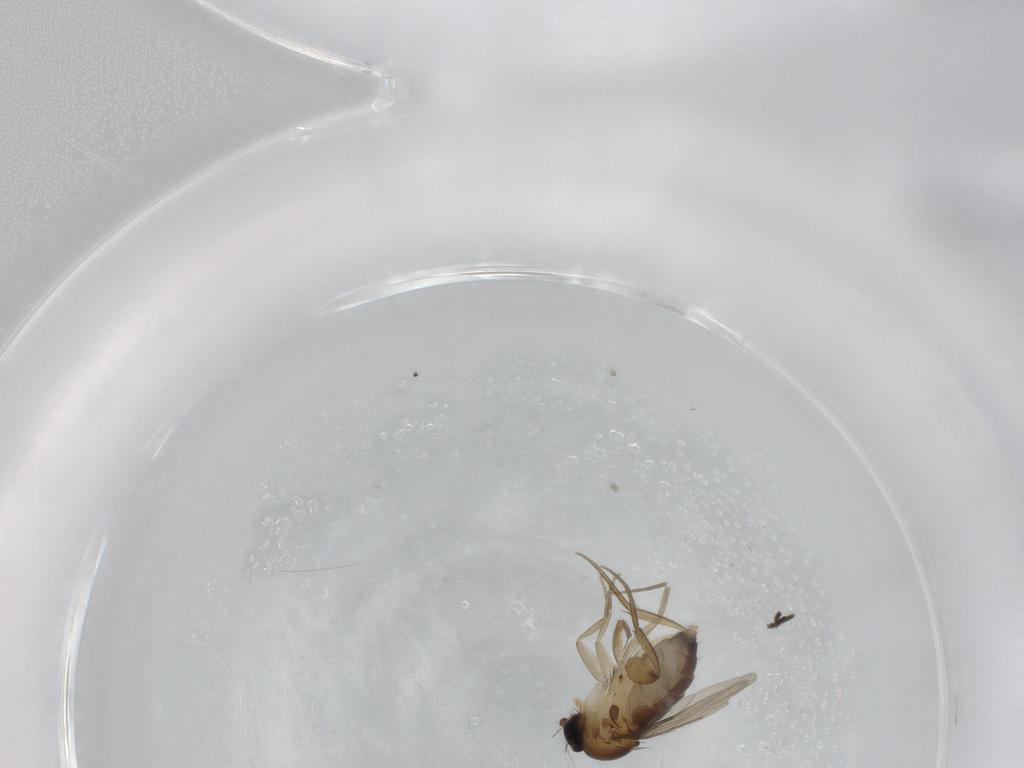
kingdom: Animalia
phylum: Arthropoda
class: Insecta
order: Diptera
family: Phoridae
